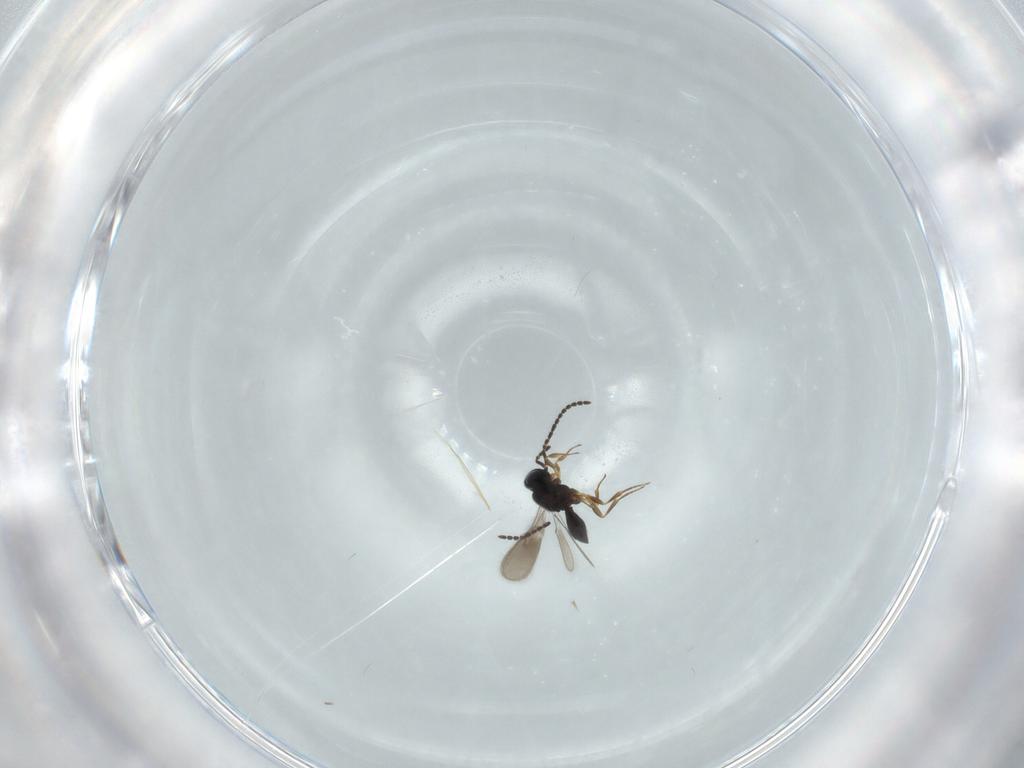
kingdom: Animalia
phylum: Arthropoda
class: Insecta
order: Hymenoptera
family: Scelionidae
